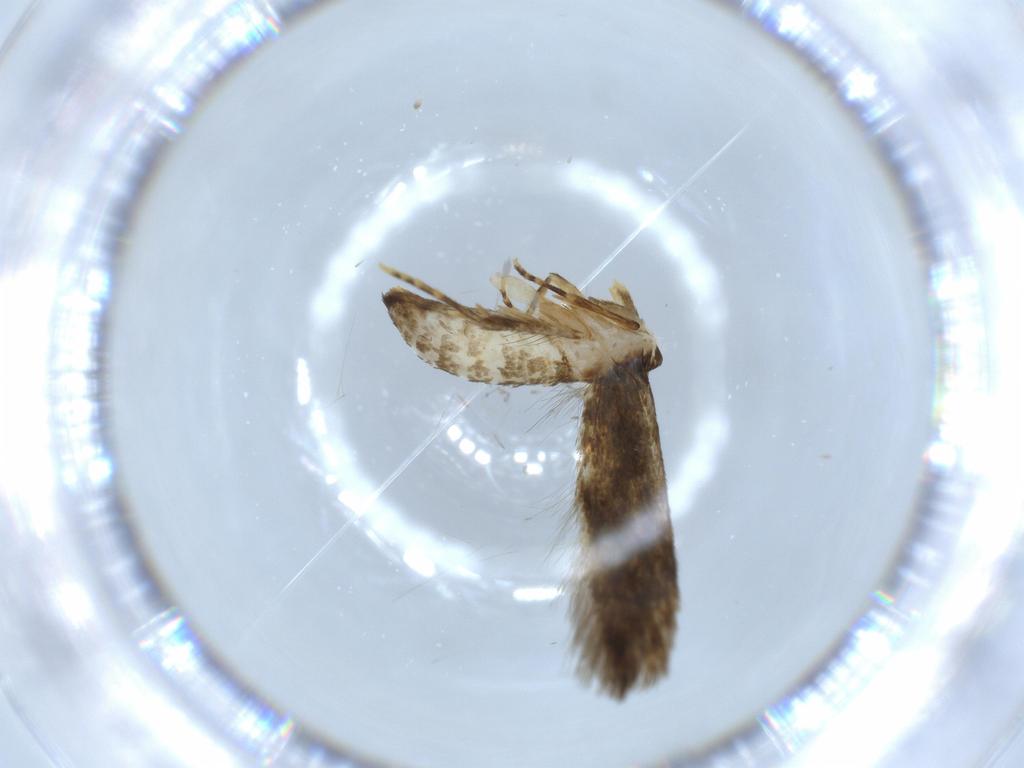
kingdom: Animalia
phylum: Arthropoda
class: Insecta
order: Lepidoptera
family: Tineidae
